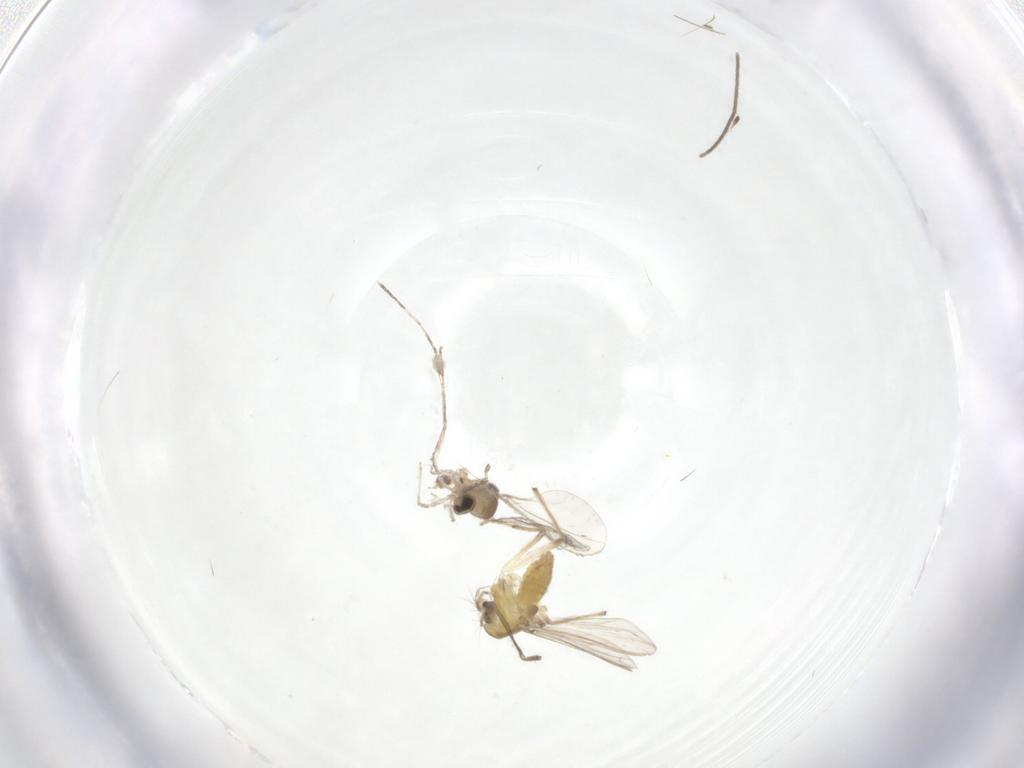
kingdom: Animalia
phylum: Arthropoda
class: Insecta
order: Diptera
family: Chironomidae
